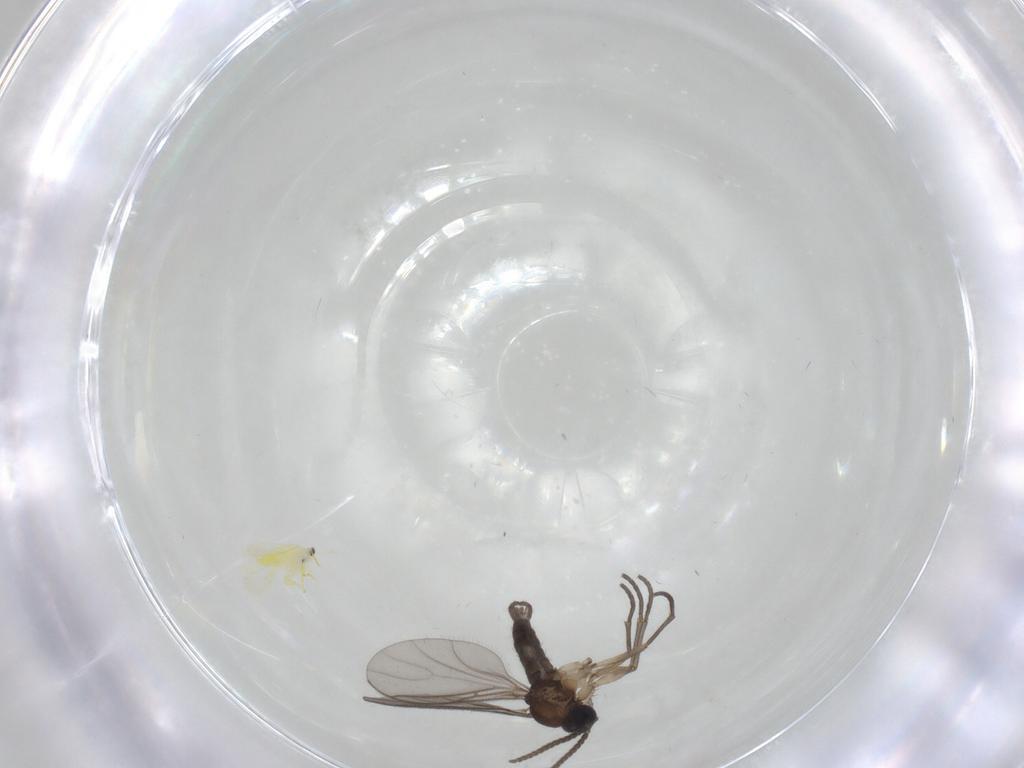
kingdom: Animalia
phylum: Arthropoda
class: Insecta
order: Diptera
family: Sciaridae
